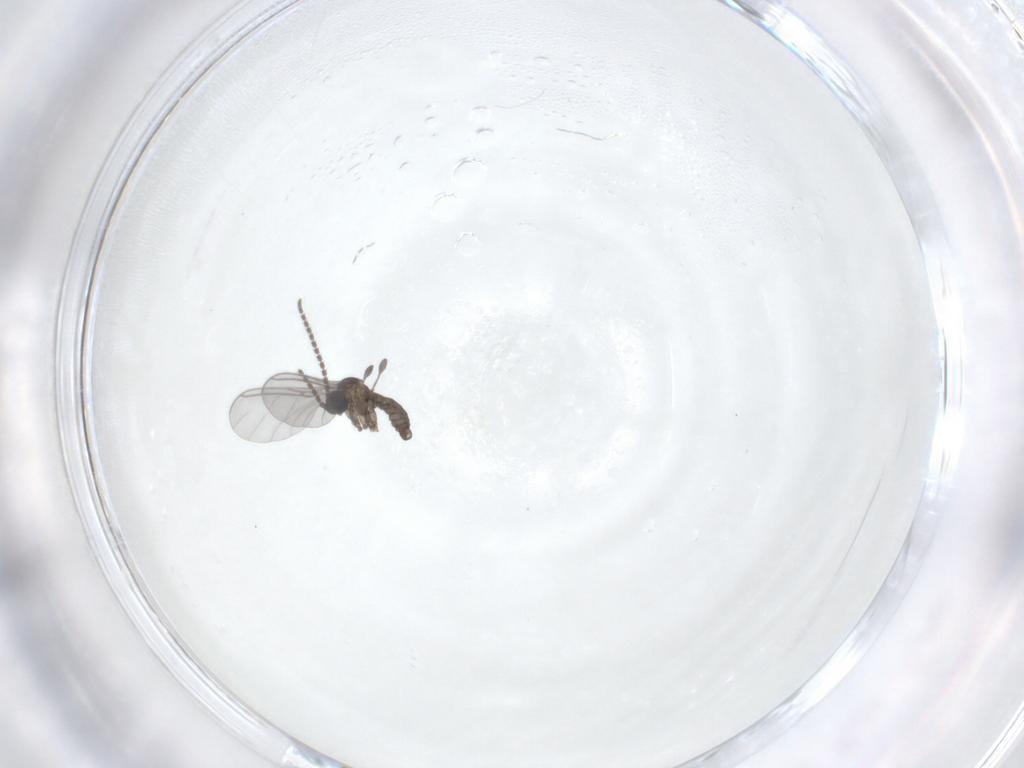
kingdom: Animalia
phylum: Arthropoda
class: Insecta
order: Diptera
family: Sciaridae
